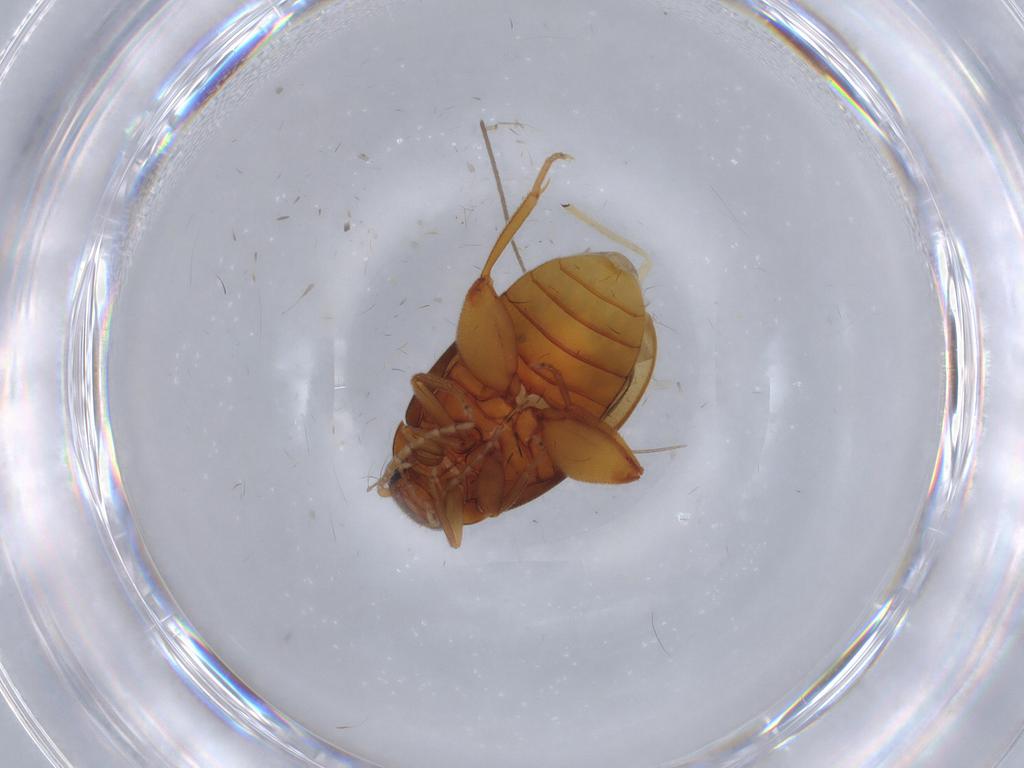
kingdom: Animalia
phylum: Arthropoda
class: Insecta
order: Coleoptera
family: Scirtidae
